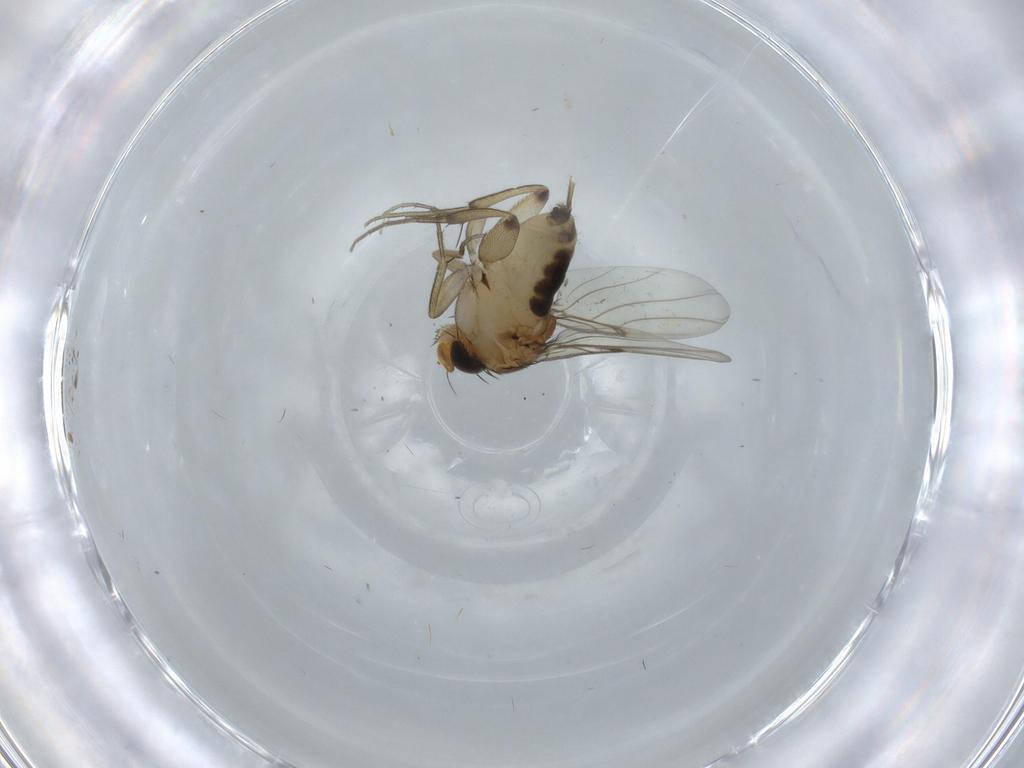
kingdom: Animalia
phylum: Arthropoda
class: Insecta
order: Diptera
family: Phoridae
